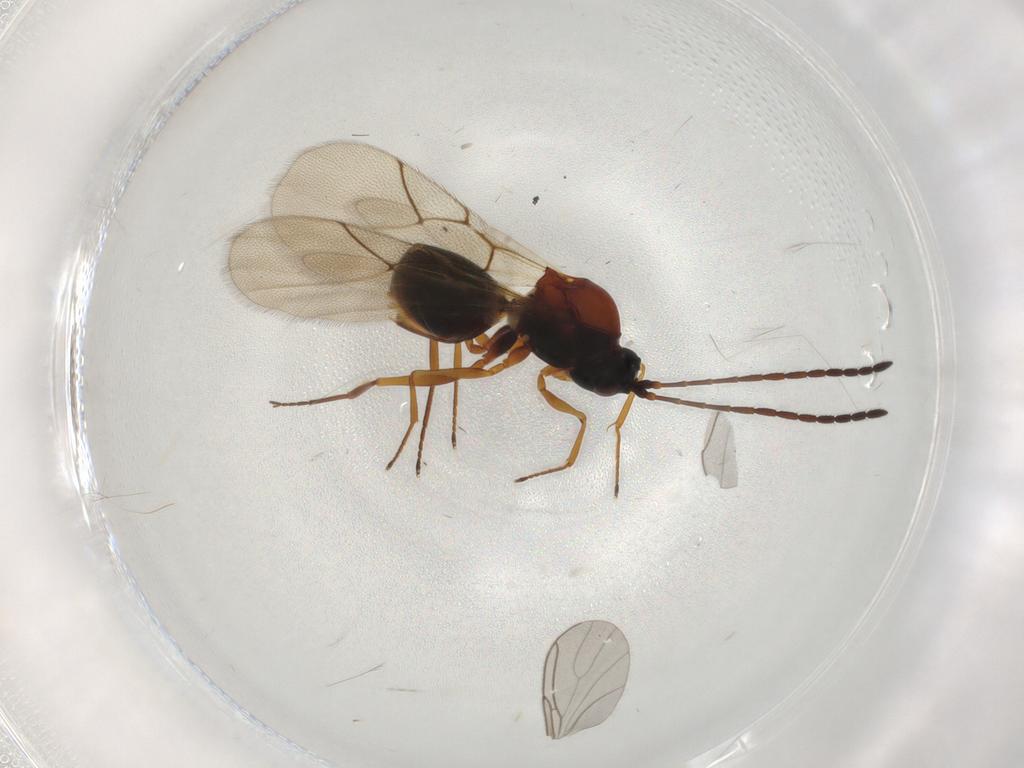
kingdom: Animalia
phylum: Arthropoda
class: Insecta
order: Hymenoptera
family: Figitidae
